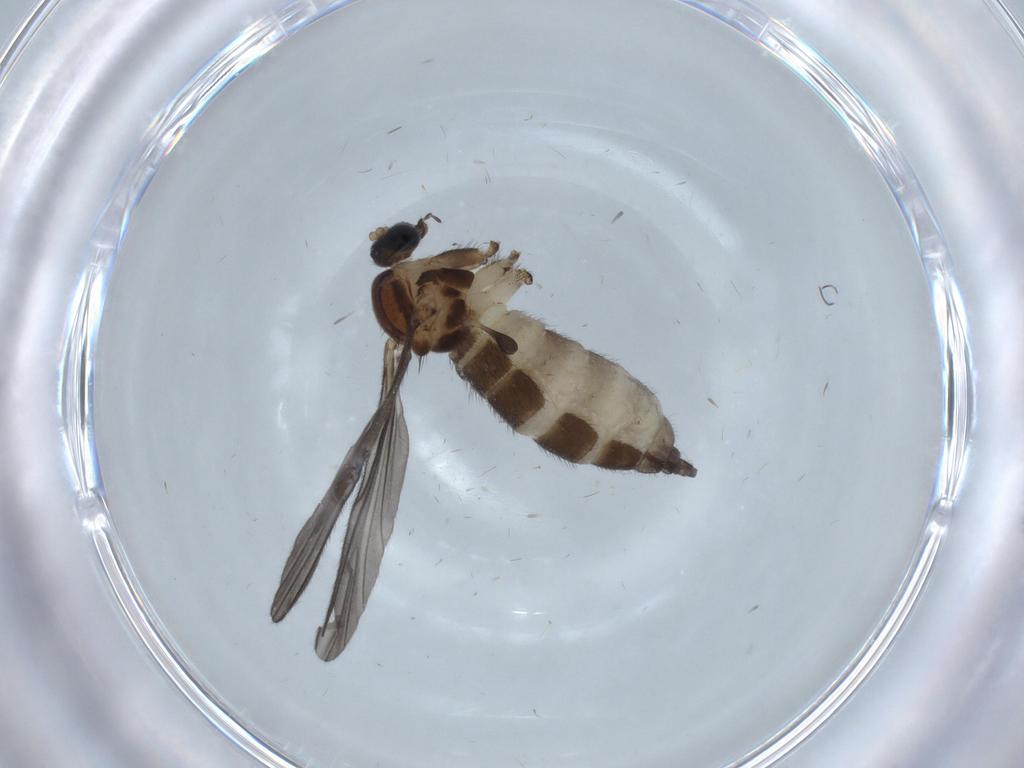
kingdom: Animalia
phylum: Arthropoda
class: Insecta
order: Diptera
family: Sciaridae
